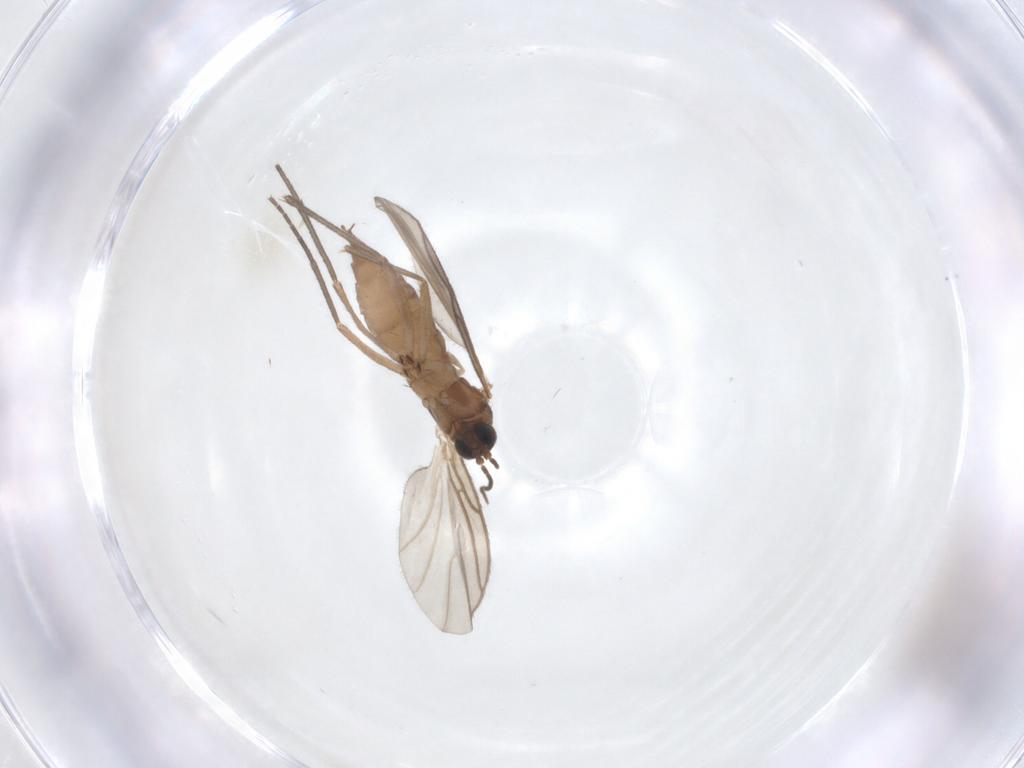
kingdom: Animalia
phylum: Arthropoda
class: Insecta
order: Diptera
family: Sciaridae
